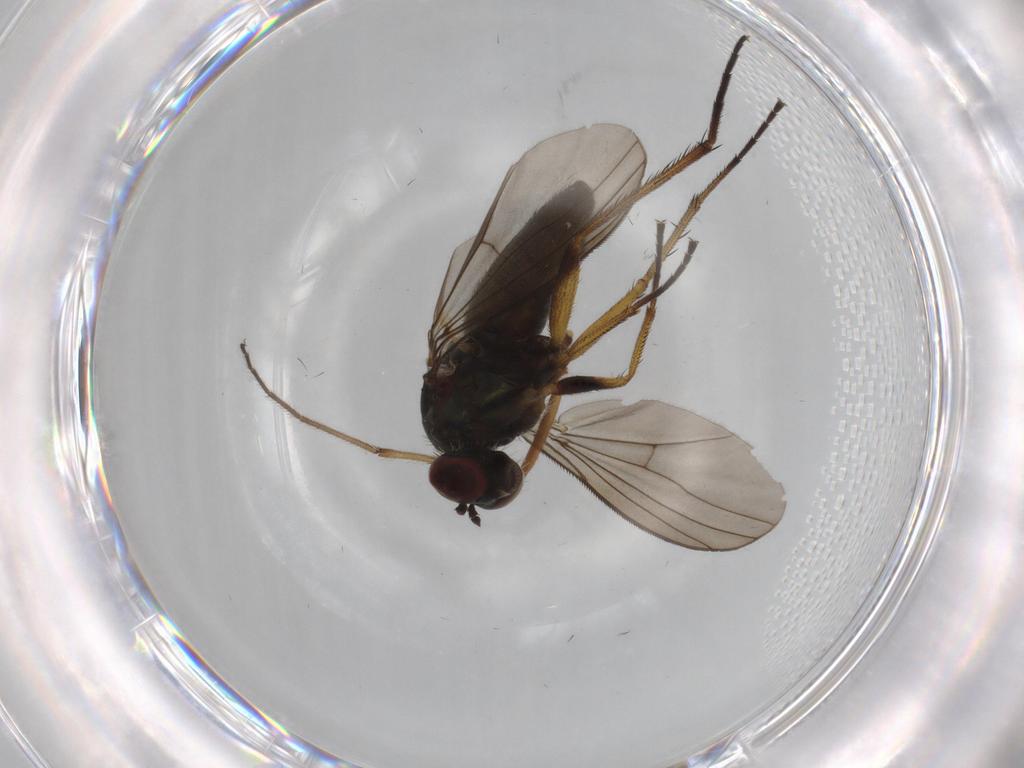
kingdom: Animalia
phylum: Arthropoda
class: Insecta
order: Diptera
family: Dolichopodidae
